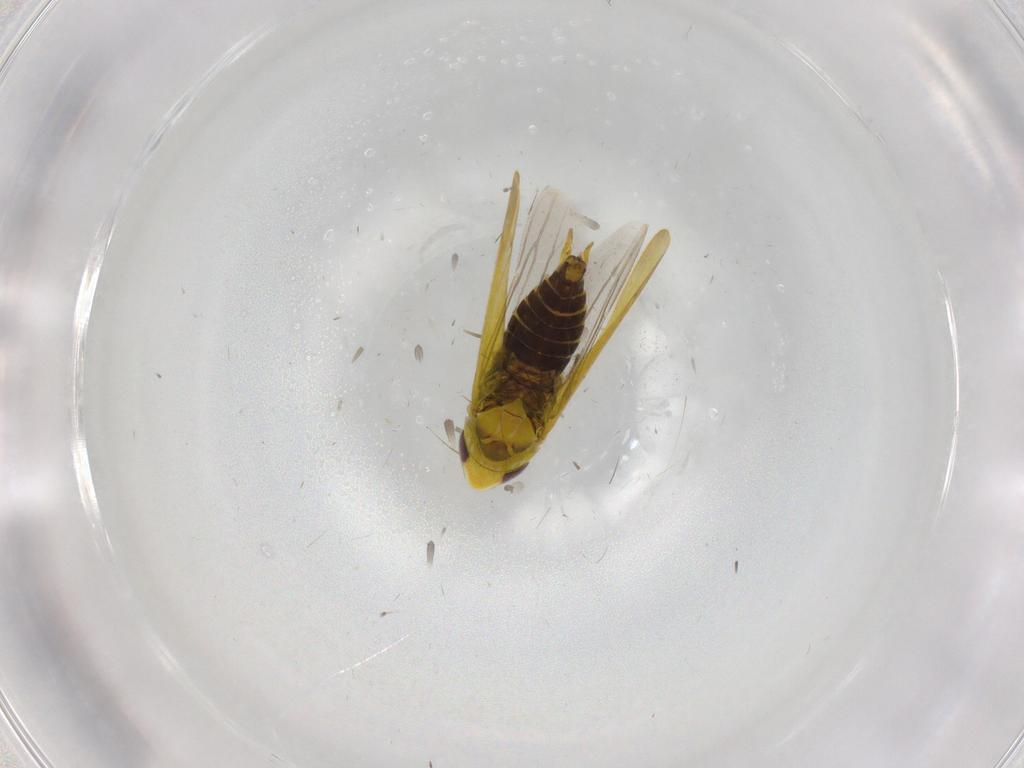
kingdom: Animalia
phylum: Arthropoda
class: Insecta
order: Hemiptera
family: Cicadellidae
